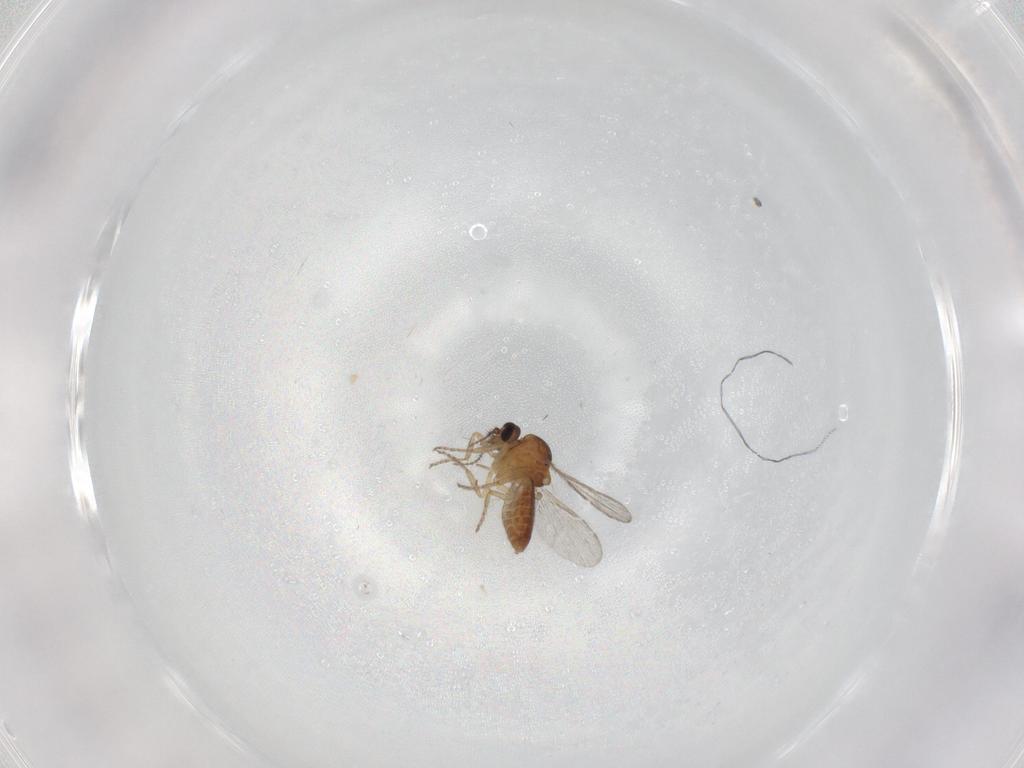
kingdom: Animalia
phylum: Arthropoda
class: Insecta
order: Diptera
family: Ceratopogonidae
